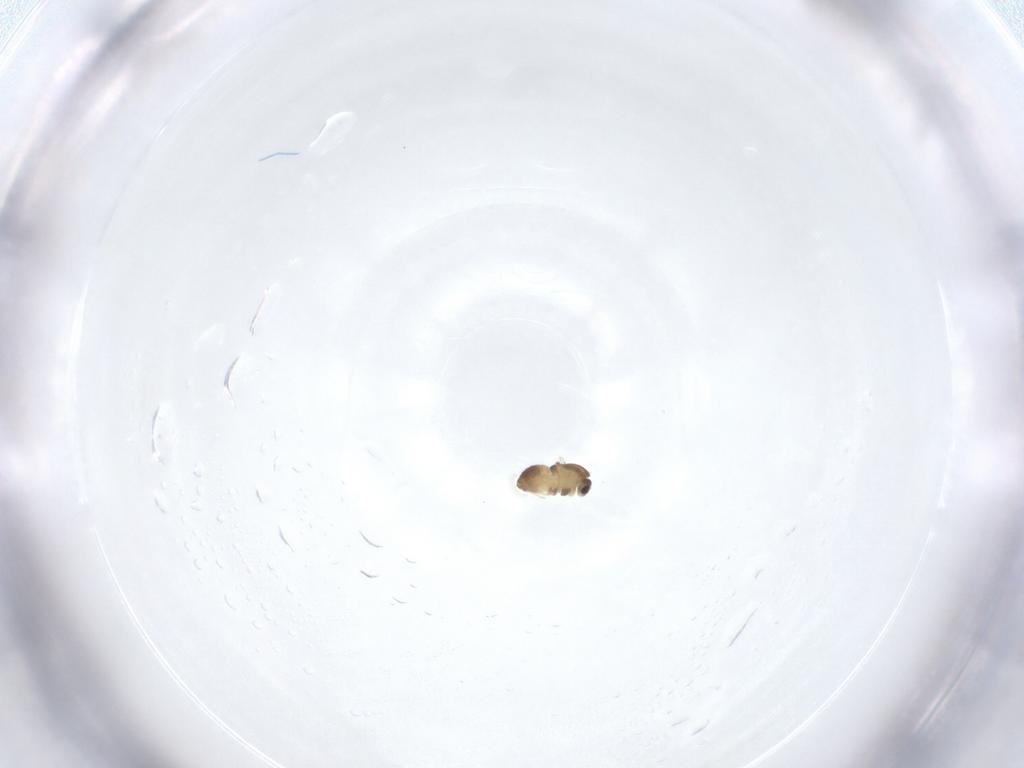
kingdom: Animalia
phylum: Arthropoda
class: Insecta
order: Diptera
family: Chironomidae
